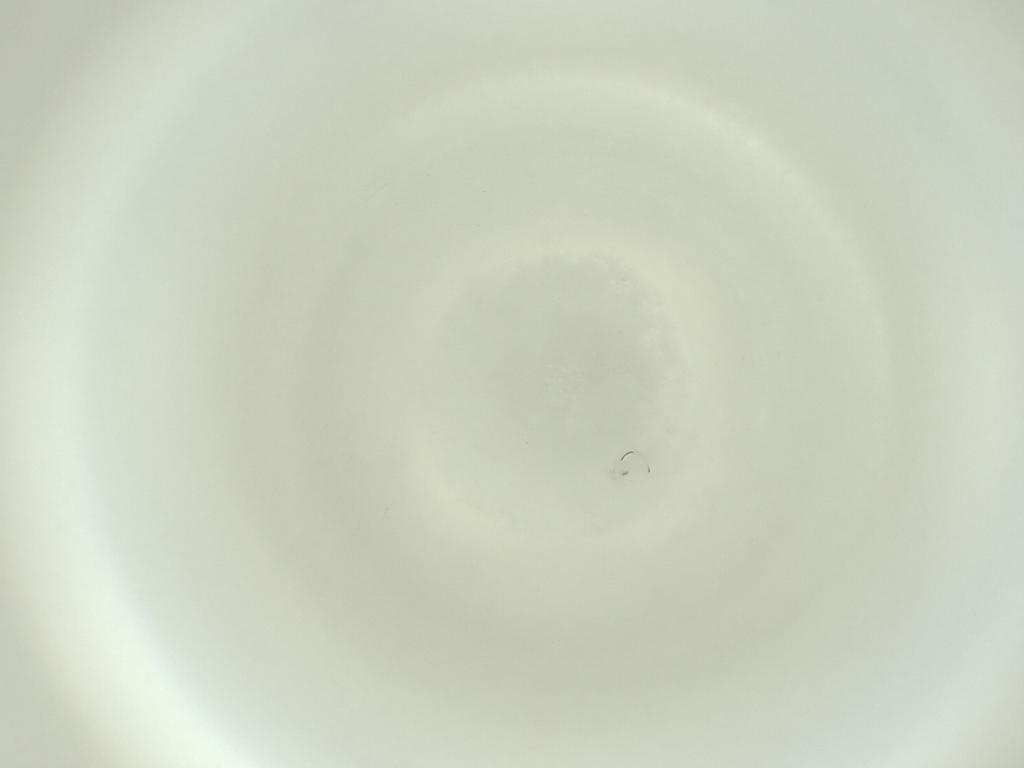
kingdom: Animalia
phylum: Arthropoda
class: Insecta
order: Diptera
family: Cecidomyiidae
